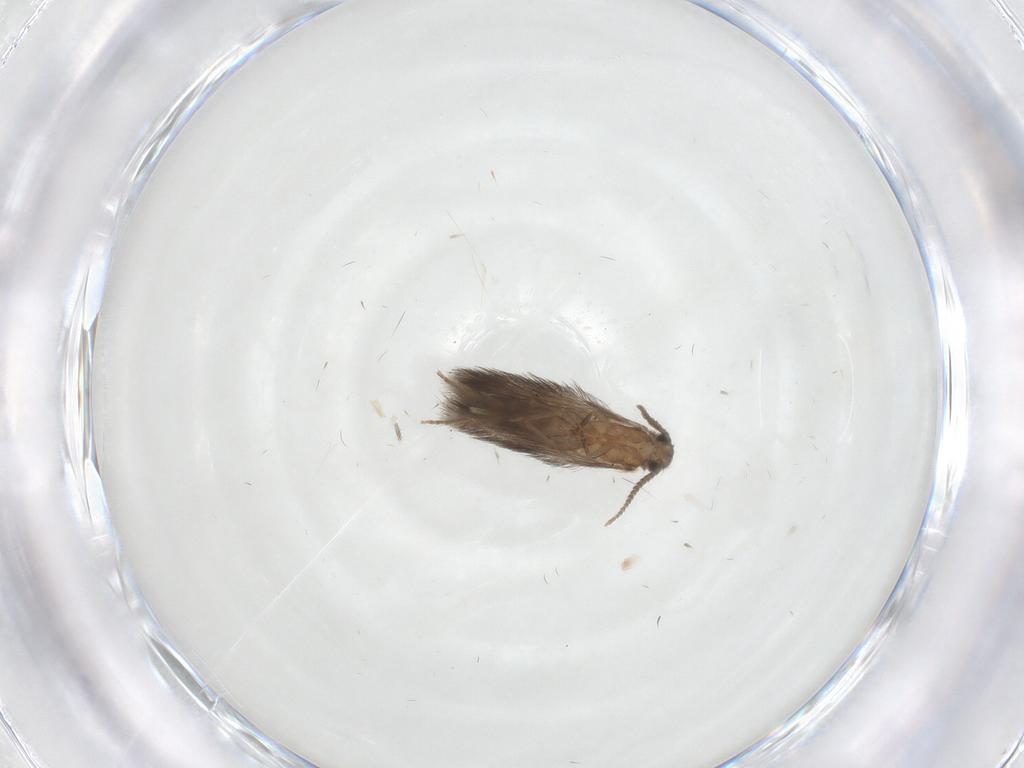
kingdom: Animalia
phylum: Arthropoda
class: Insecta
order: Trichoptera
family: Hydroptilidae
